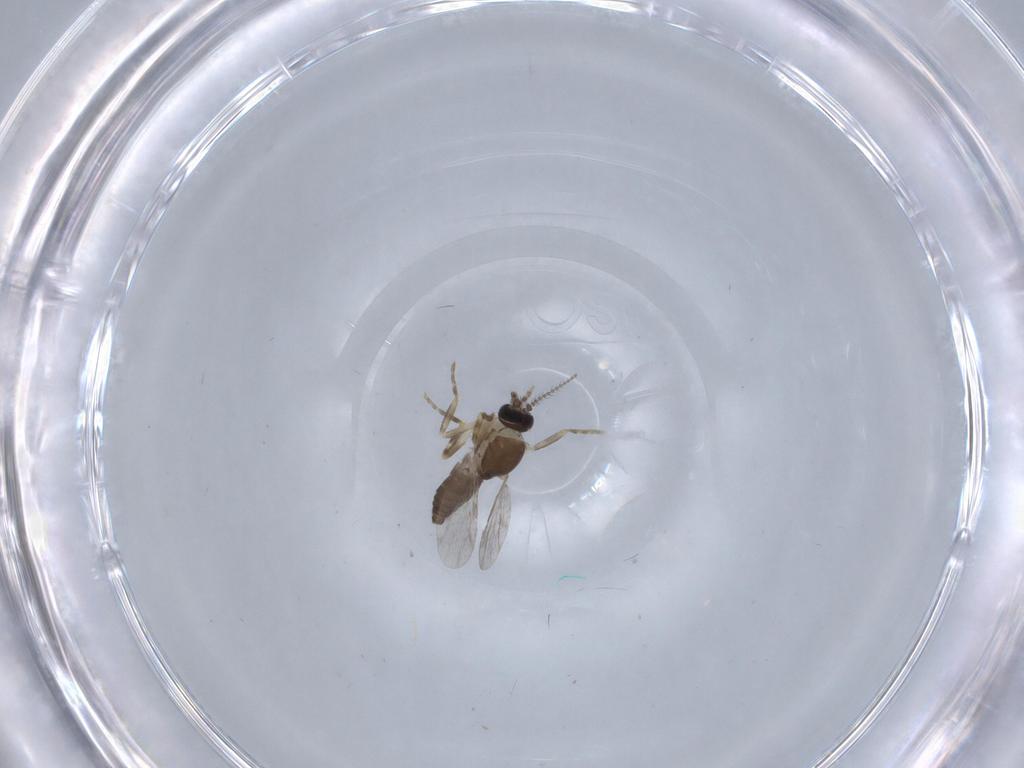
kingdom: Animalia
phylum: Arthropoda
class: Insecta
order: Diptera
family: Ceratopogonidae
